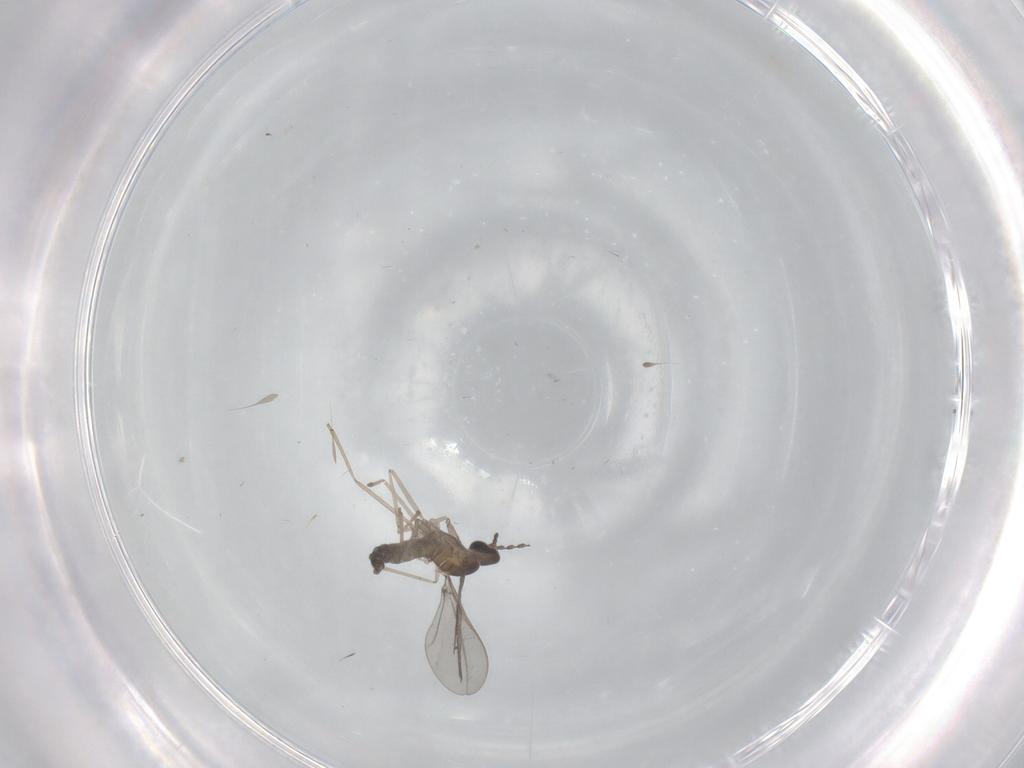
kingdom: Animalia
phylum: Arthropoda
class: Insecta
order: Diptera
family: Cecidomyiidae
